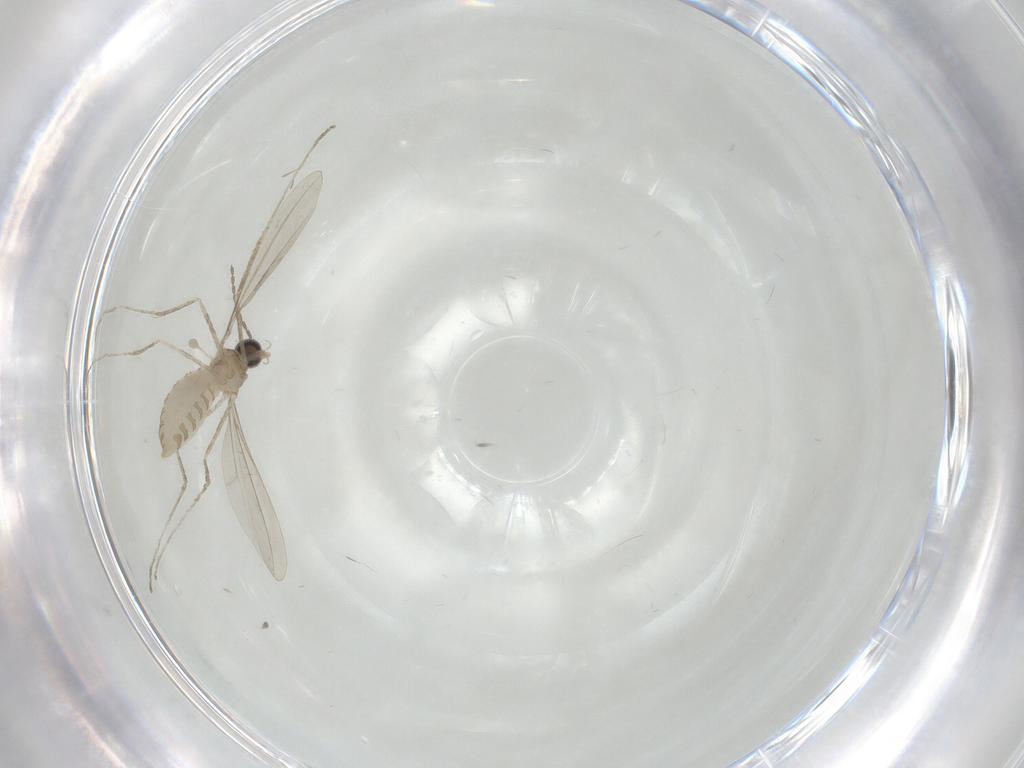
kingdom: Animalia
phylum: Arthropoda
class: Insecta
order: Diptera
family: Cecidomyiidae
